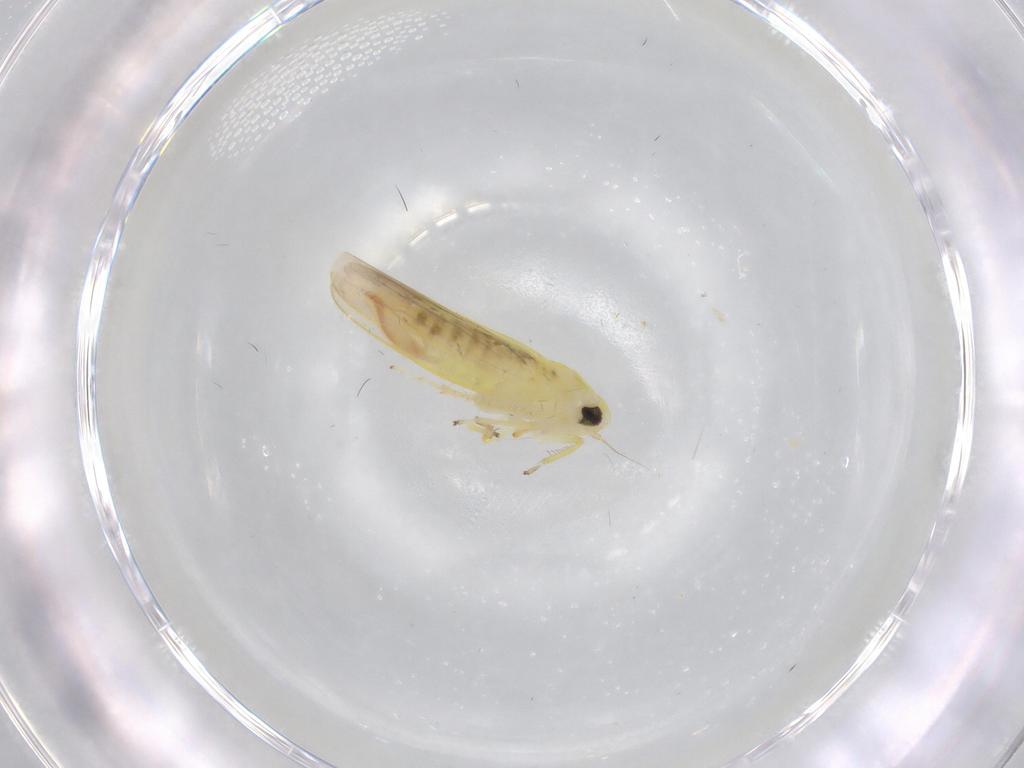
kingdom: Animalia
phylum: Arthropoda
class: Insecta
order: Hemiptera
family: Cicadellidae
